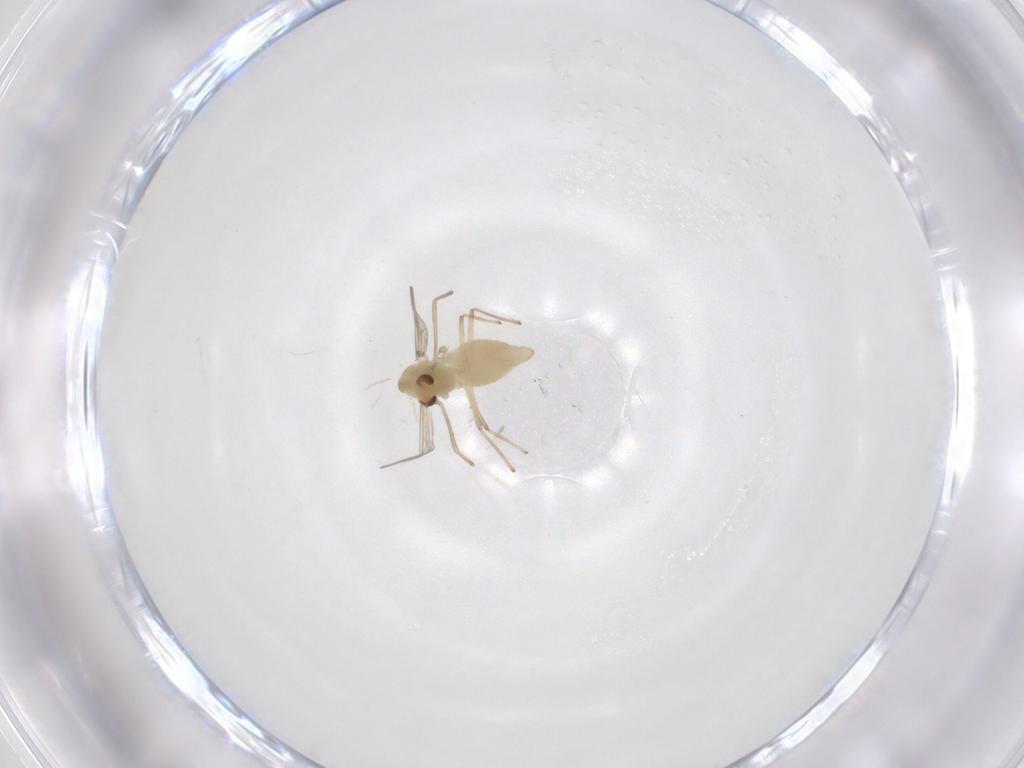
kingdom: Animalia
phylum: Arthropoda
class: Insecta
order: Diptera
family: Chironomidae
